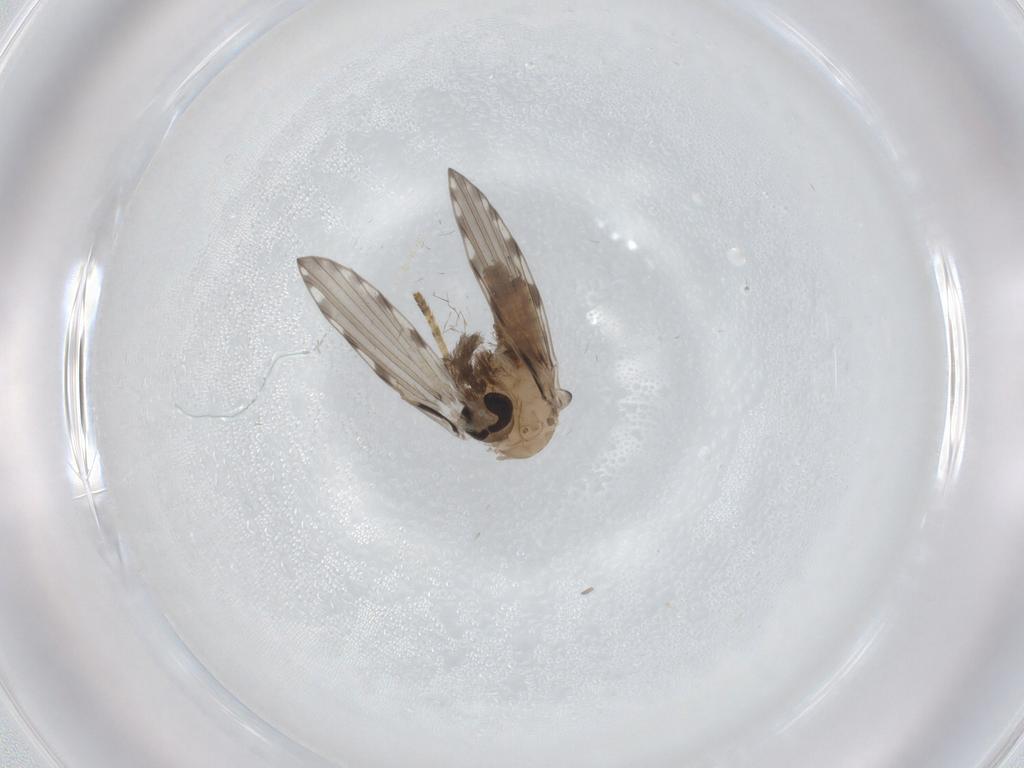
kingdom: Animalia
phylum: Arthropoda
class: Insecta
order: Diptera
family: Psychodidae
